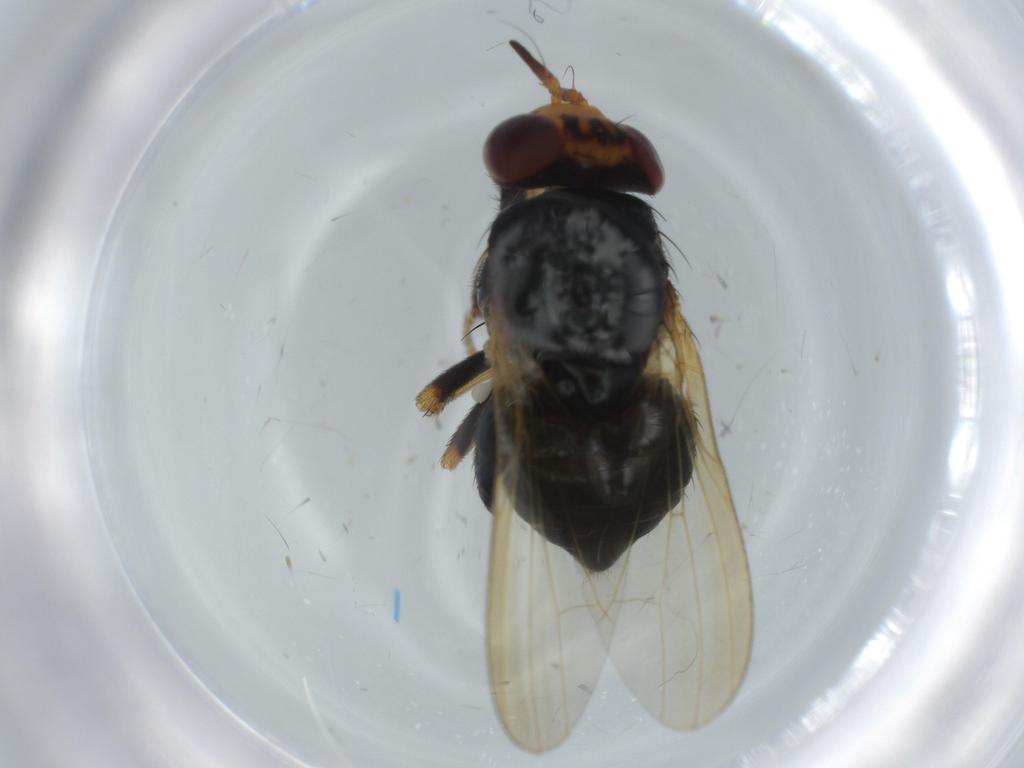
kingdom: Animalia
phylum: Arthropoda
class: Insecta
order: Diptera
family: Cecidomyiidae
